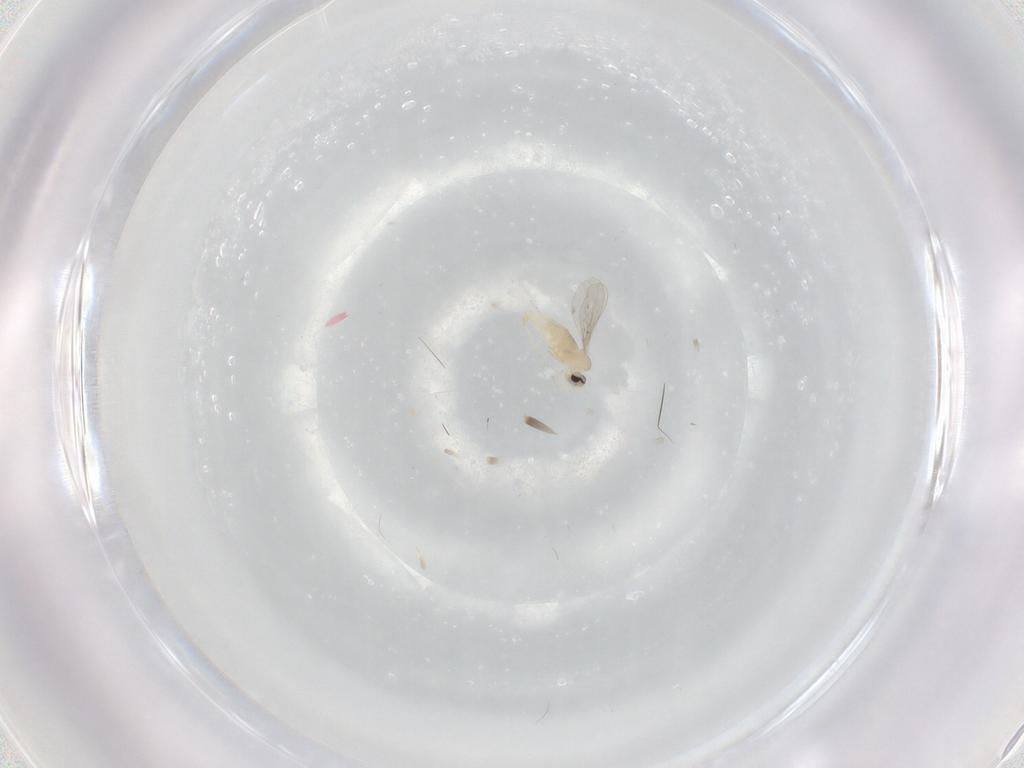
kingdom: Animalia
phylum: Arthropoda
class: Insecta
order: Diptera
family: Cecidomyiidae
